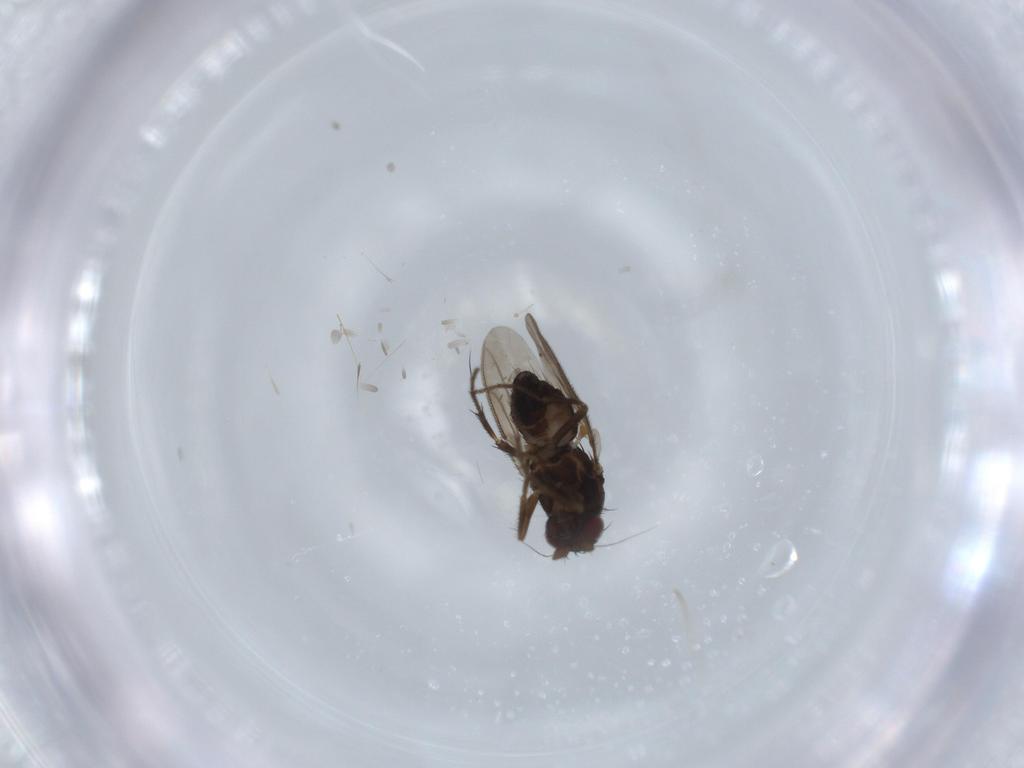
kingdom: Animalia
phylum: Arthropoda
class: Insecta
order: Diptera
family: Sphaeroceridae
